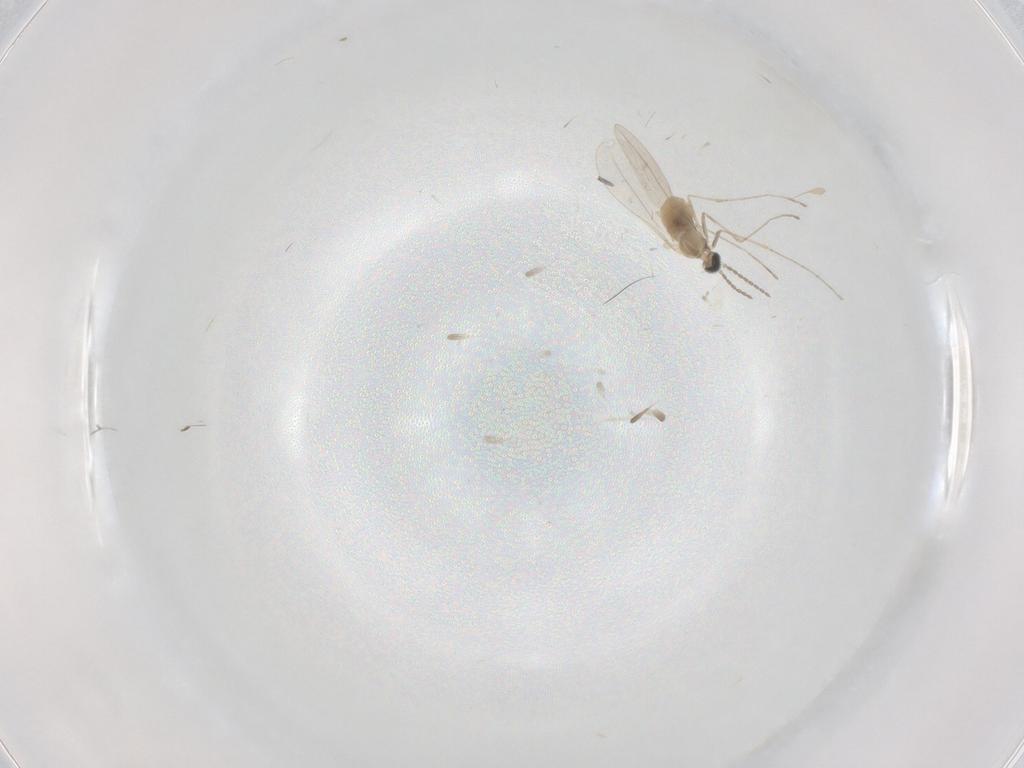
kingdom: Animalia
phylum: Arthropoda
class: Insecta
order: Diptera
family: Cecidomyiidae
